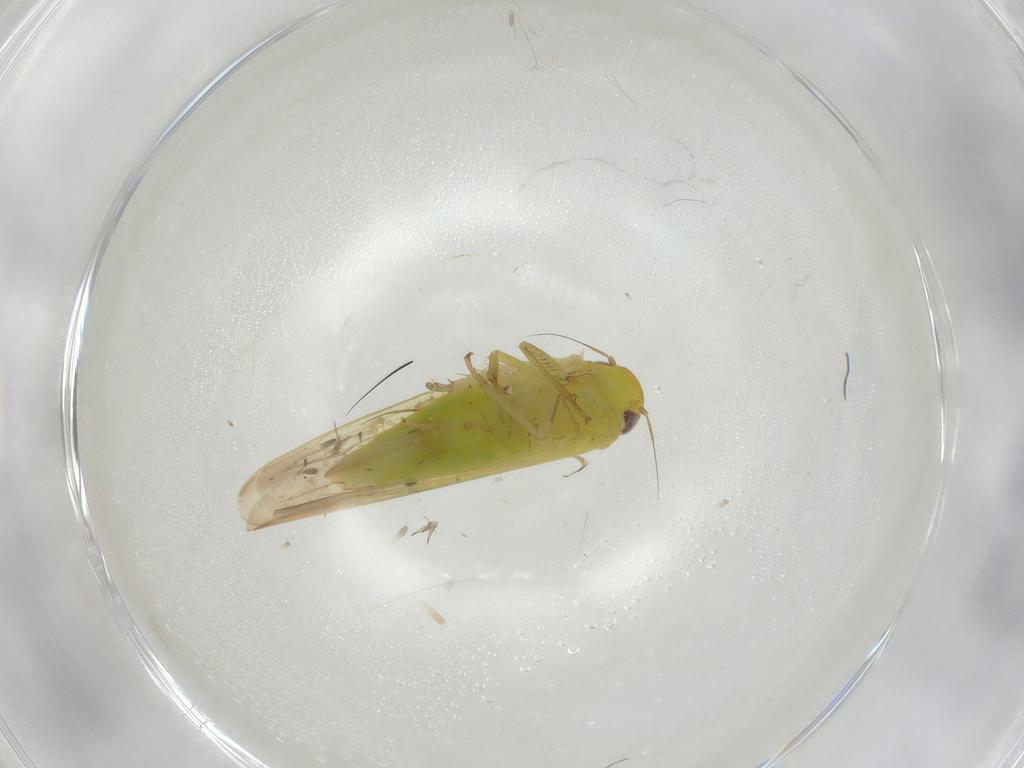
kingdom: Animalia
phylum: Arthropoda
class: Insecta
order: Hemiptera
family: Cicadellidae
